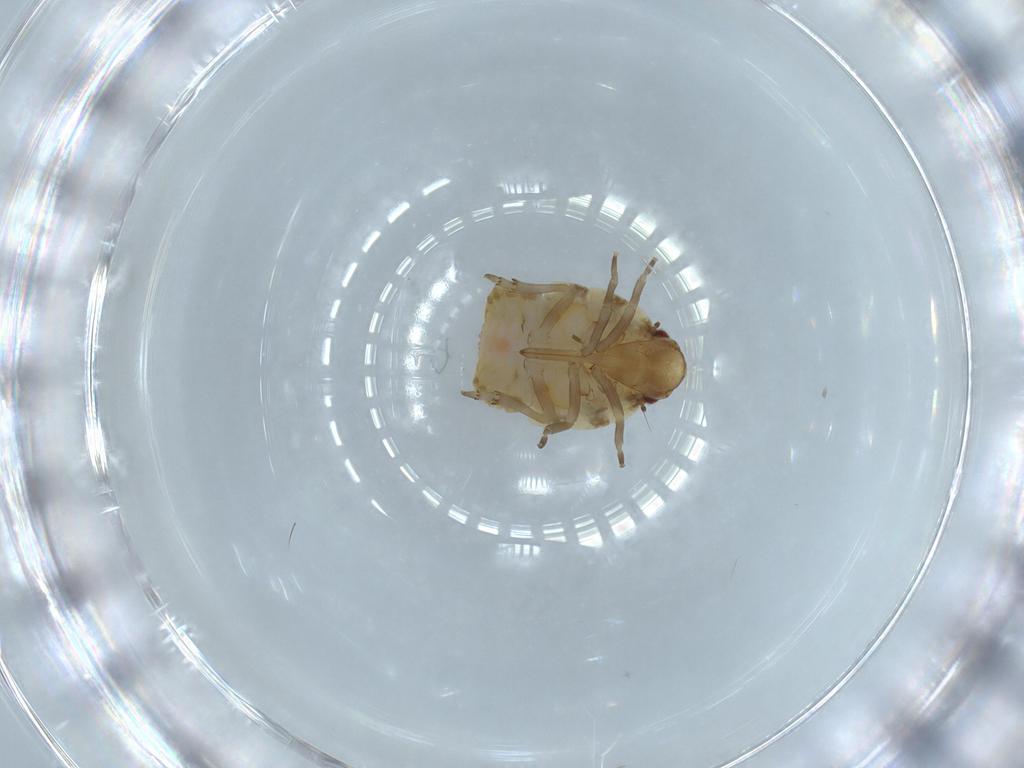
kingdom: Animalia
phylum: Arthropoda
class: Insecta
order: Hemiptera
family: Flatidae
